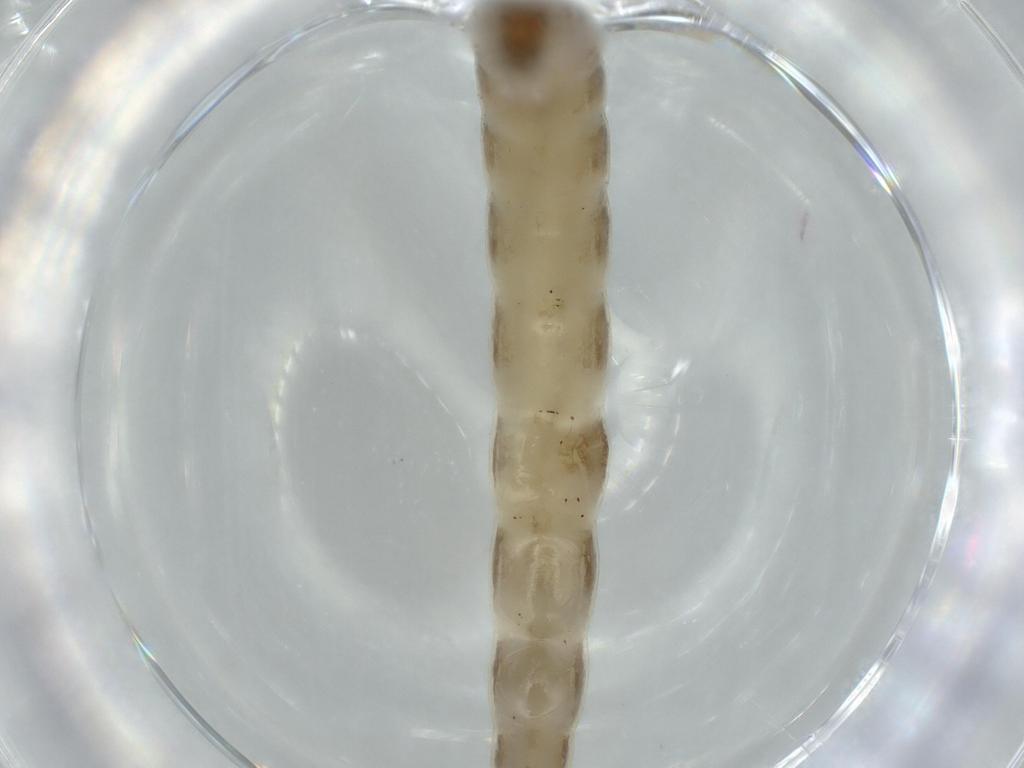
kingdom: Animalia
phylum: Arthropoda
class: Insecta
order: Diptera
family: Chironomidae
